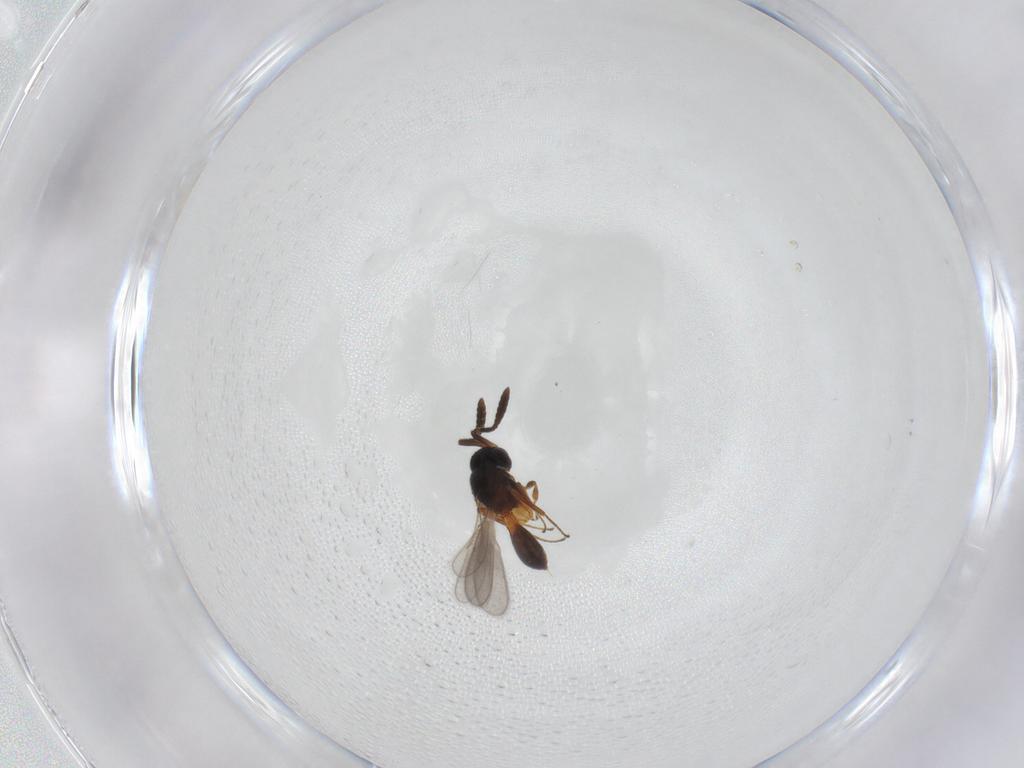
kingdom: Animalia
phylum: Arthropoda
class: Insecta
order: Hymenoptera
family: Scelionidae
